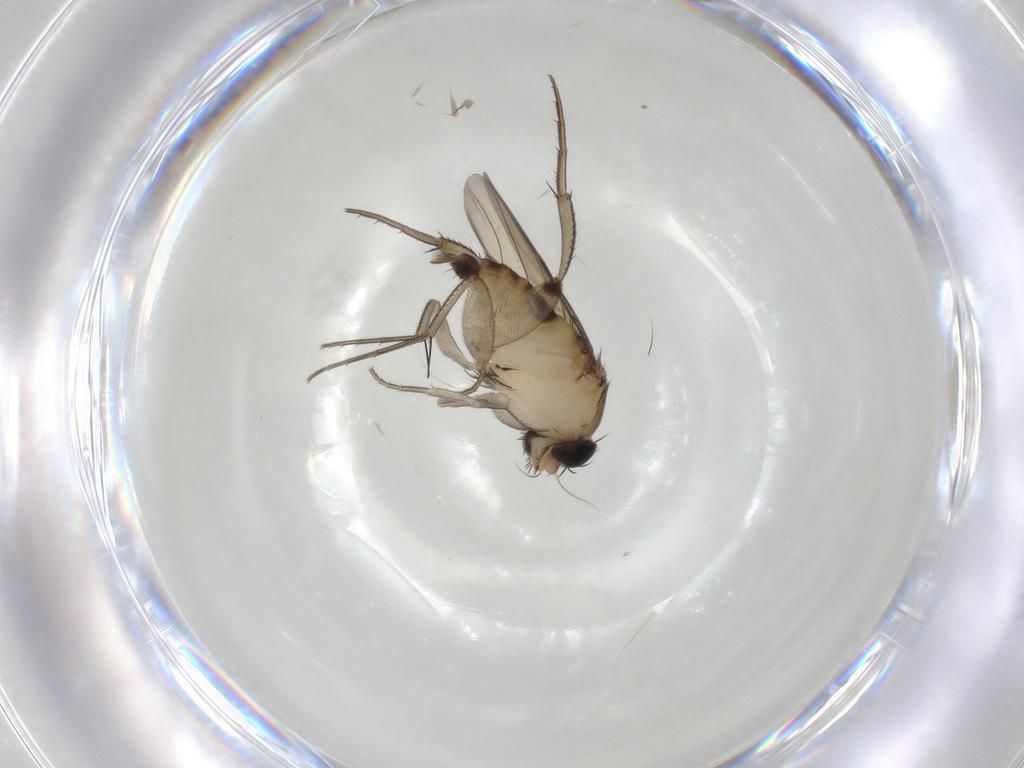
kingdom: Animalia
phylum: Arthropoda
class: Insecta
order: Diptera
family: Phoridae
